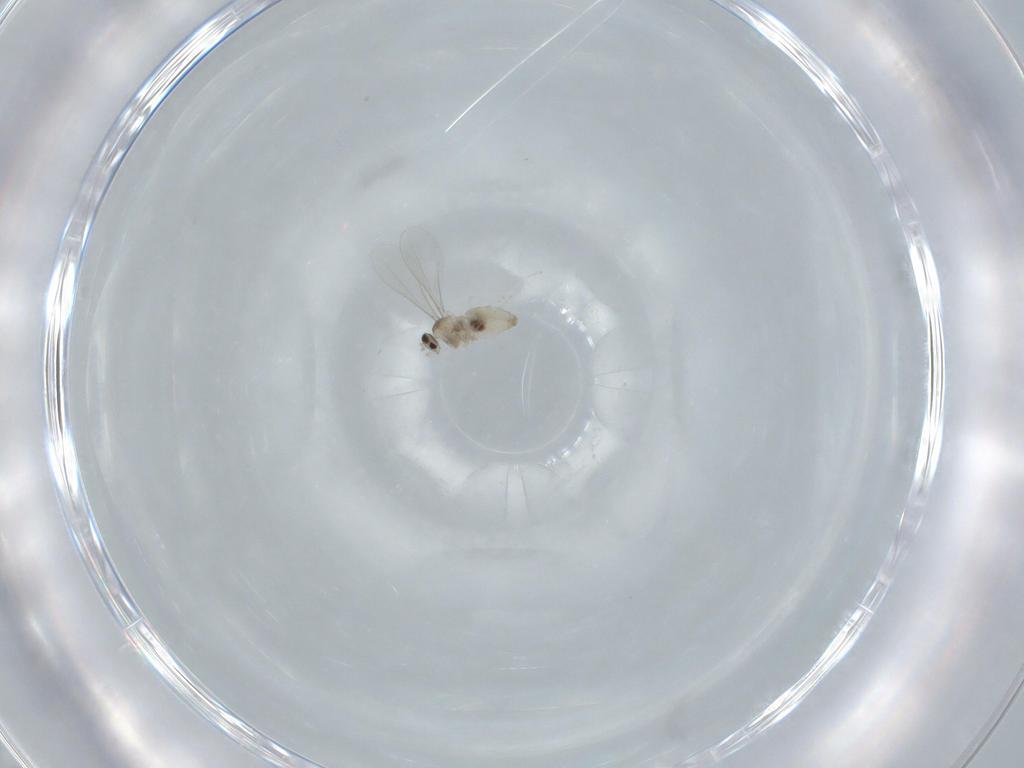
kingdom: Animalia
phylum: Arthropoda
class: Insecta
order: Diptera
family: Cecidomyiidae
